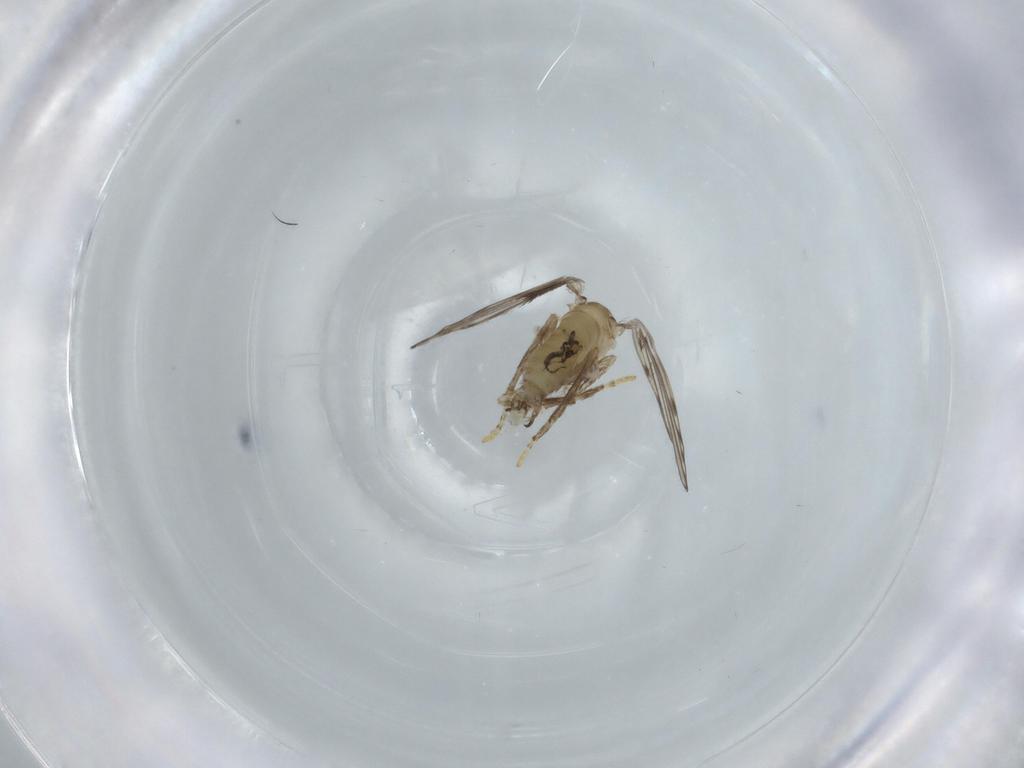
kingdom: Animalia
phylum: Arthropoda
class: Insecta
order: Diptera
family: Psychodidae
